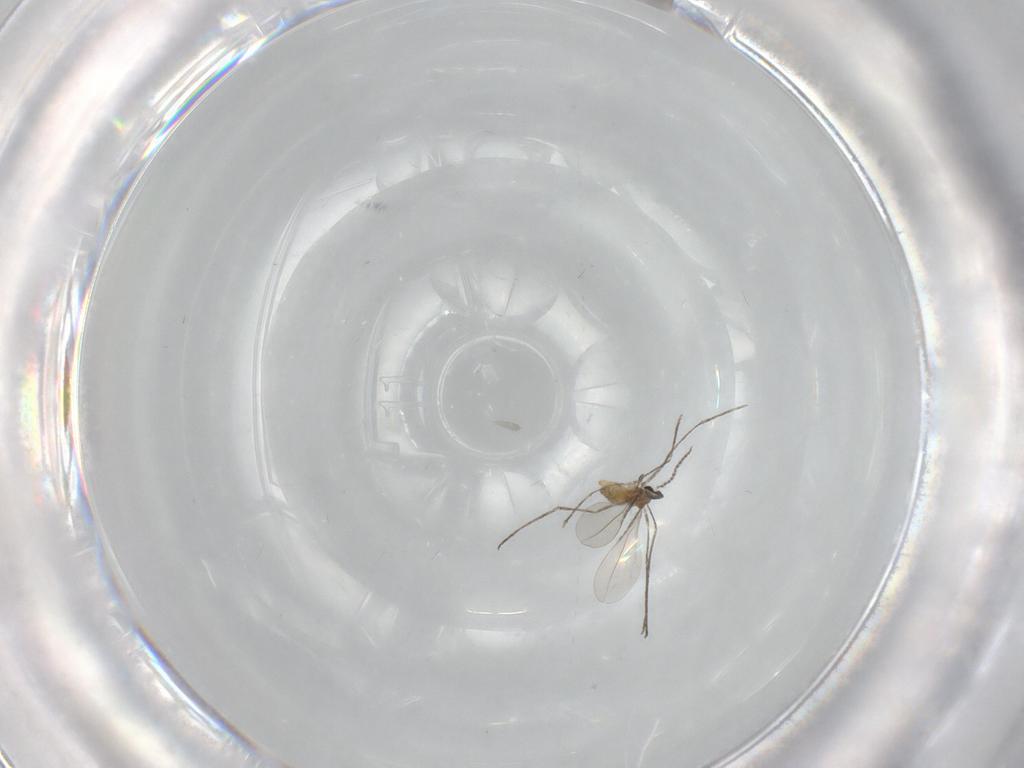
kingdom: Animalia
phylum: Arthropoda
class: Insecta
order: Diptera
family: Cecidomyiidae
